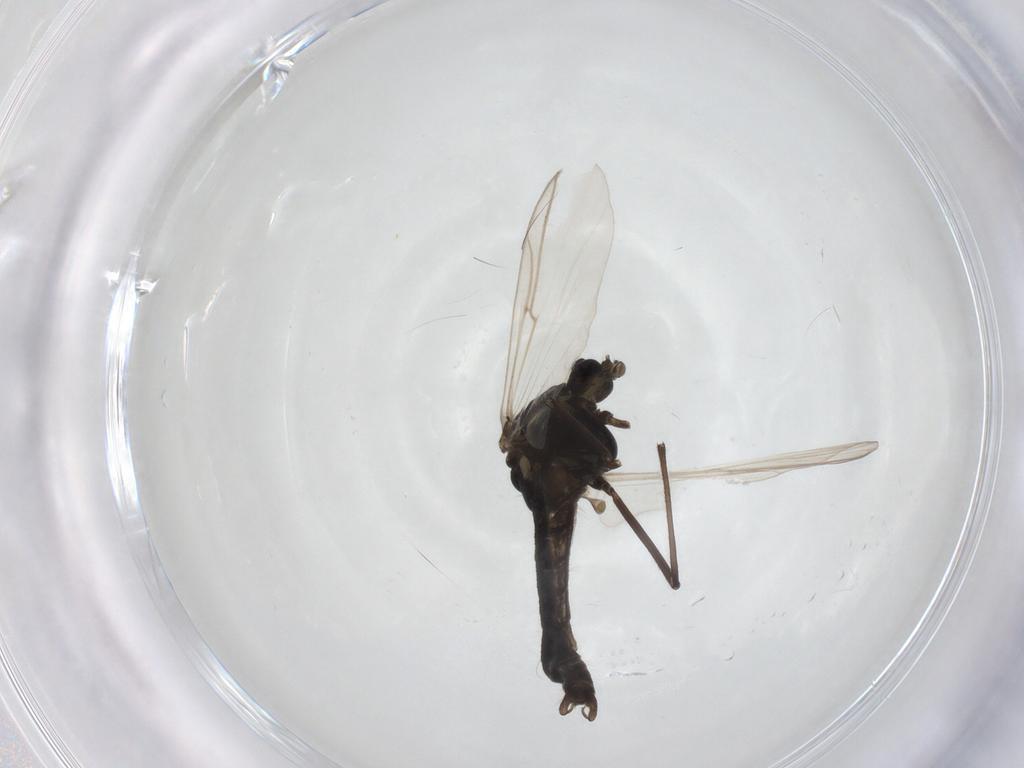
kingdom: Animalia
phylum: Arthropoda
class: Insecta
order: Diptera
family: Chironomidae
